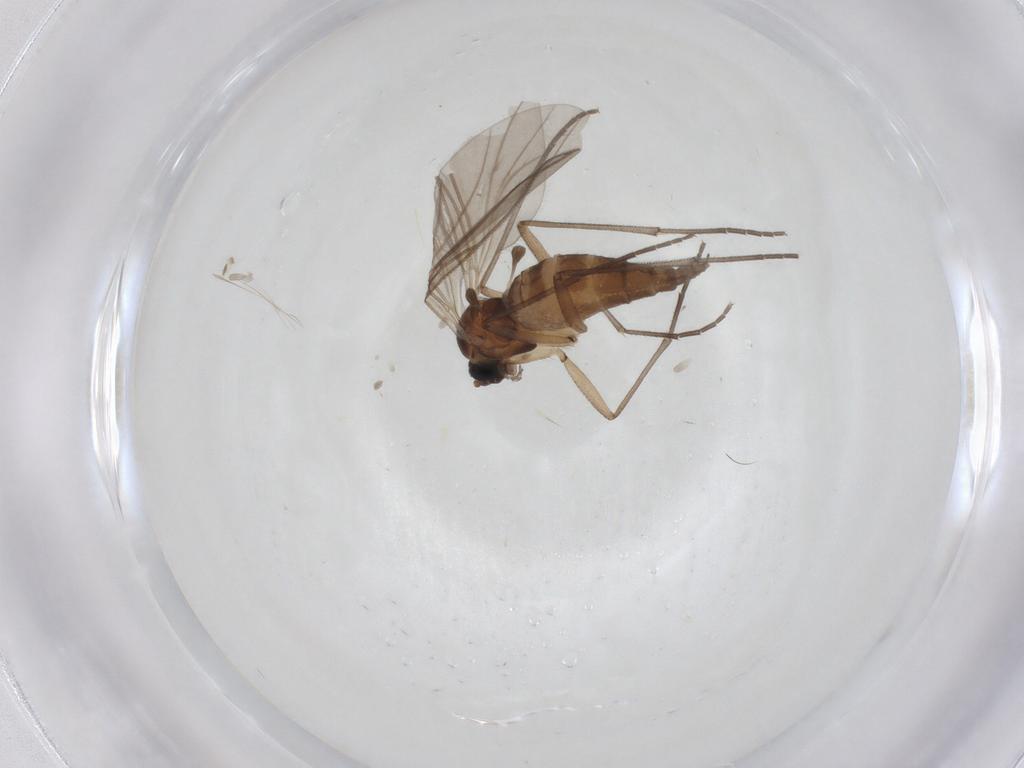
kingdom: Animalia
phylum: Arthropoda
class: Insecta
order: Diptera
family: Sciaridae
